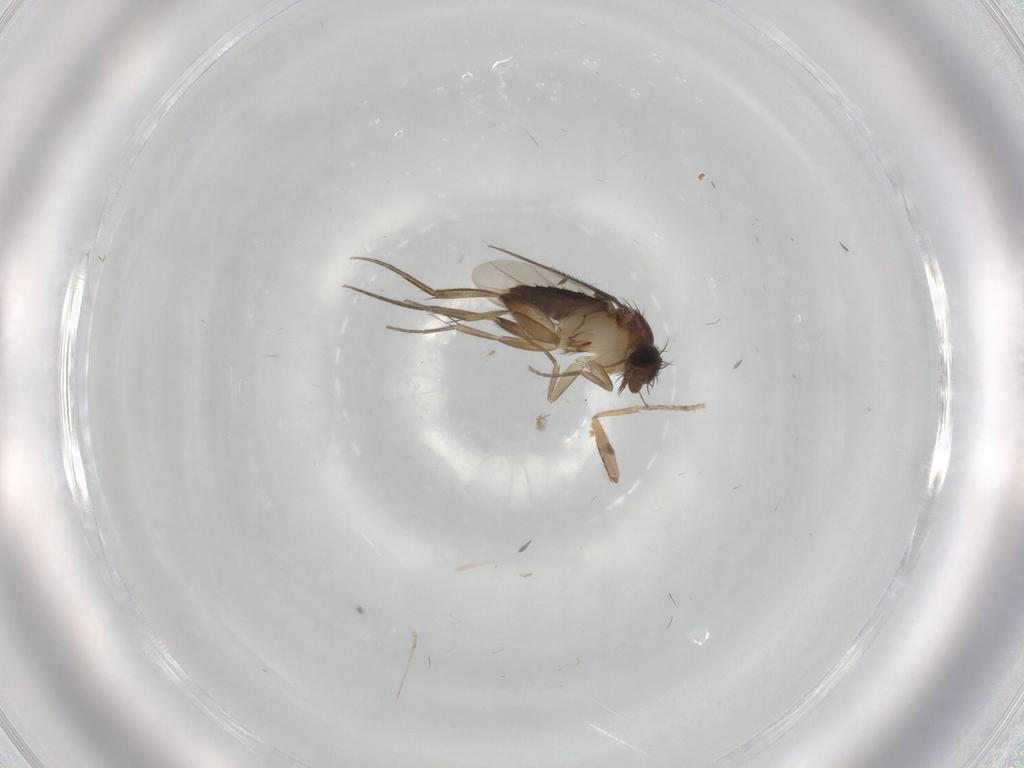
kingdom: Animalia
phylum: Arthropoda
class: Insecta
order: Diptera
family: Phoridae
